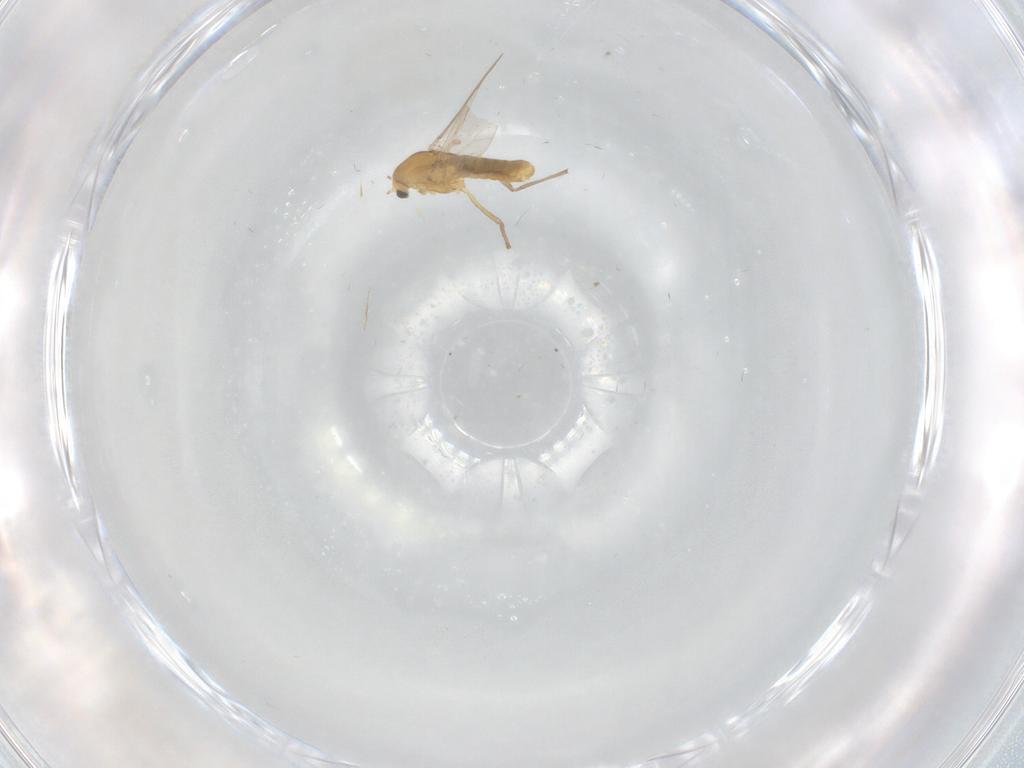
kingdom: Animalia
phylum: Arthropoda
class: Insecta
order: Diptera
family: Chironomidae
